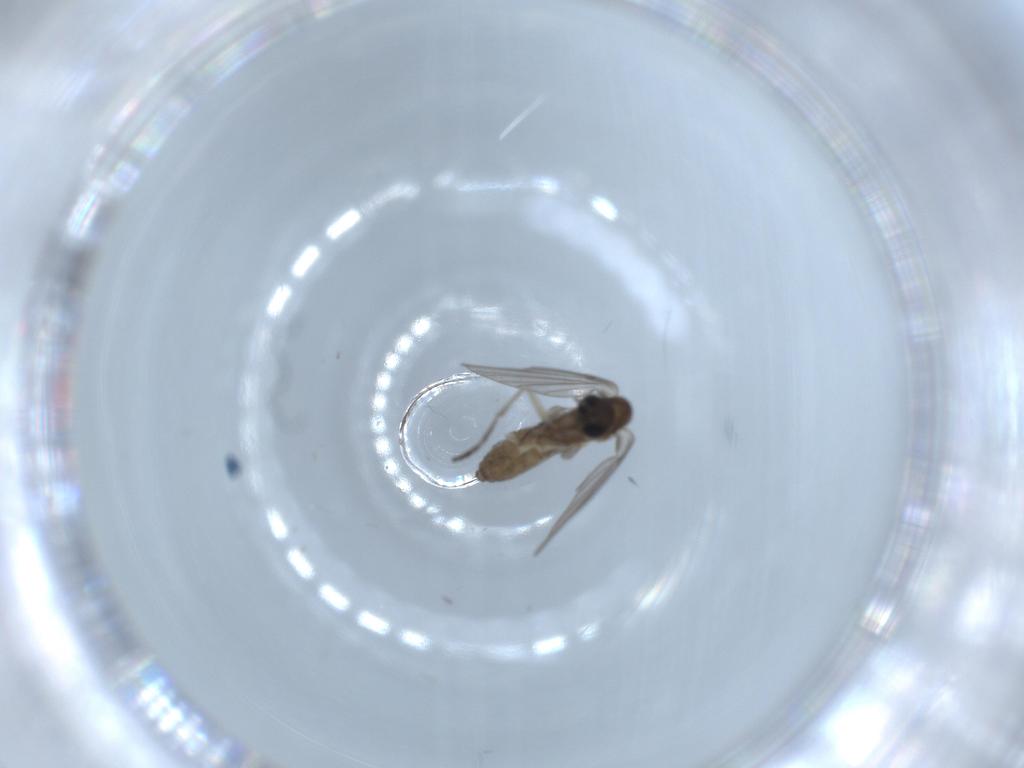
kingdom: Animalia
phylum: Arthropoda
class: Insecta
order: Diptera
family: Psychodidae
